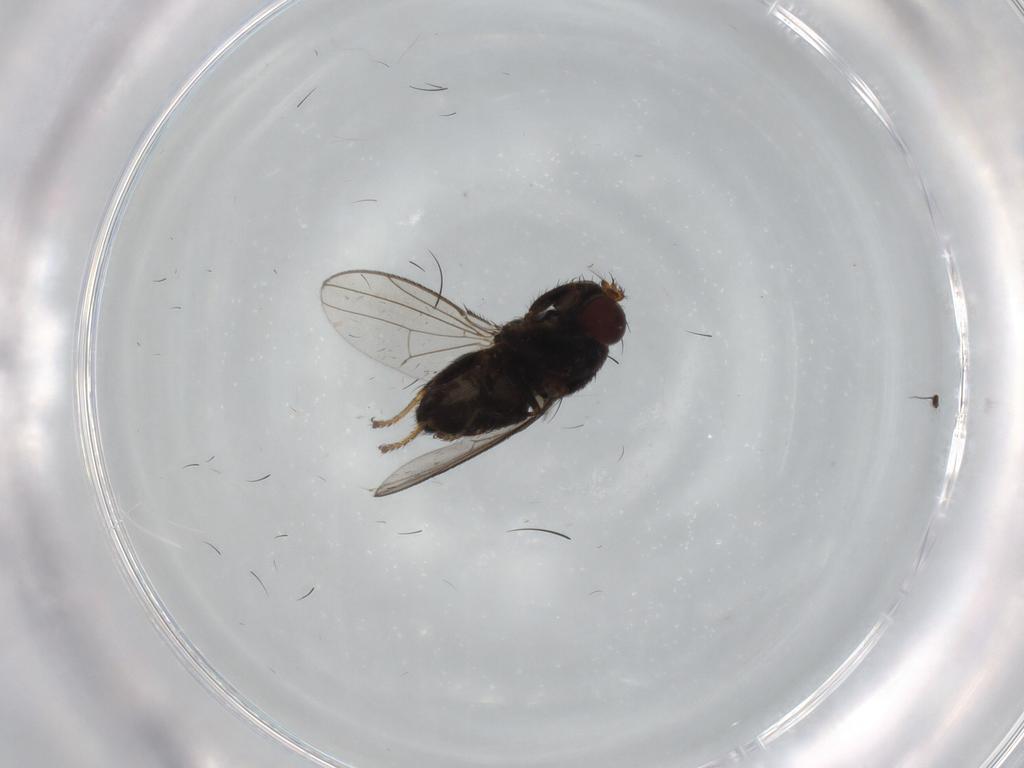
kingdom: Animalia
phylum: Arthropoda
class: Insecta
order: Diptera
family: Ephydridae
